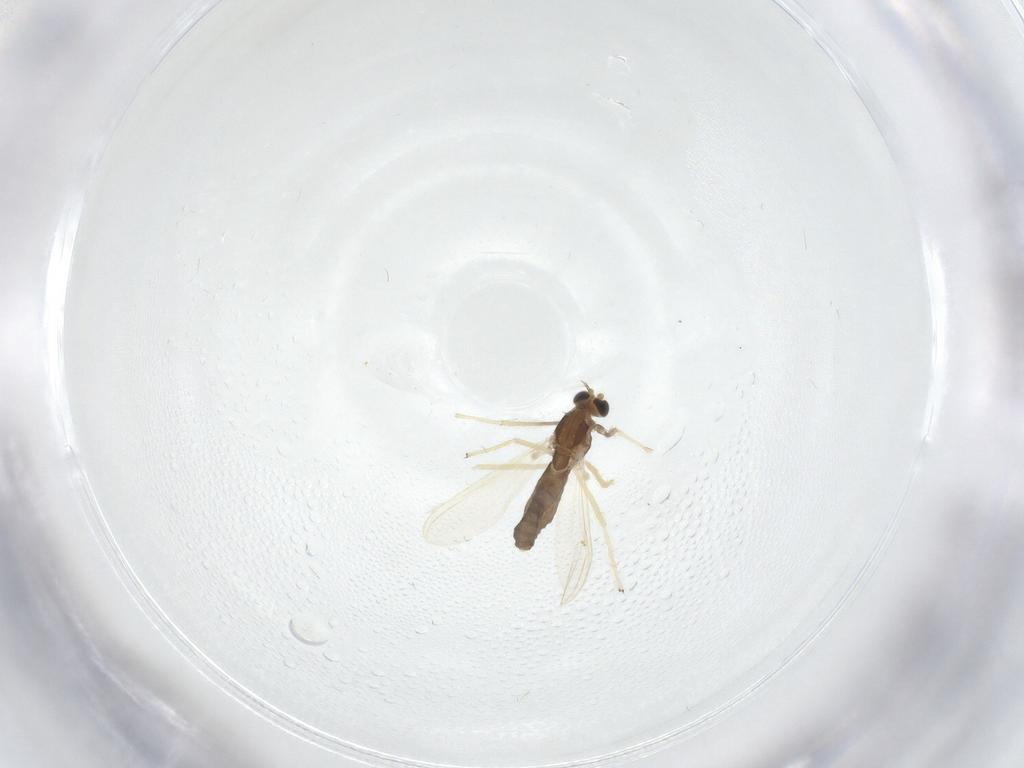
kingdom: Animalia
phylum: Arthropoda
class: Insecta
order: Diptera
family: Chironomidae
